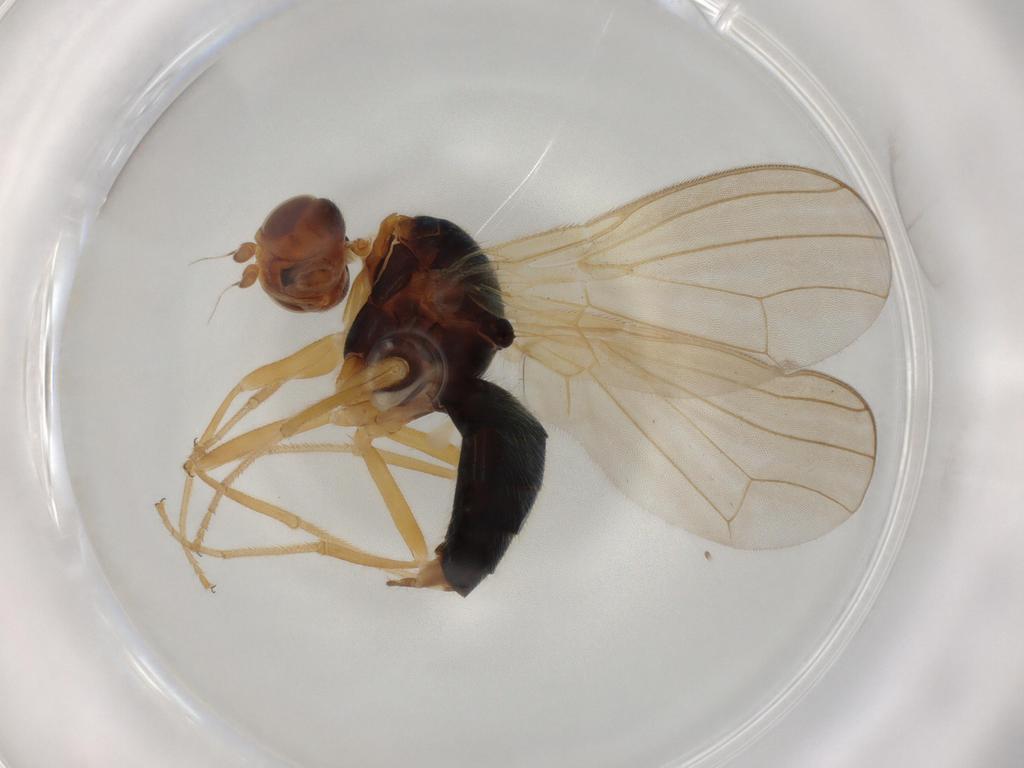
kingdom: Animalia
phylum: Arthropoda
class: Insecta
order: Diptera
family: Psilidae
